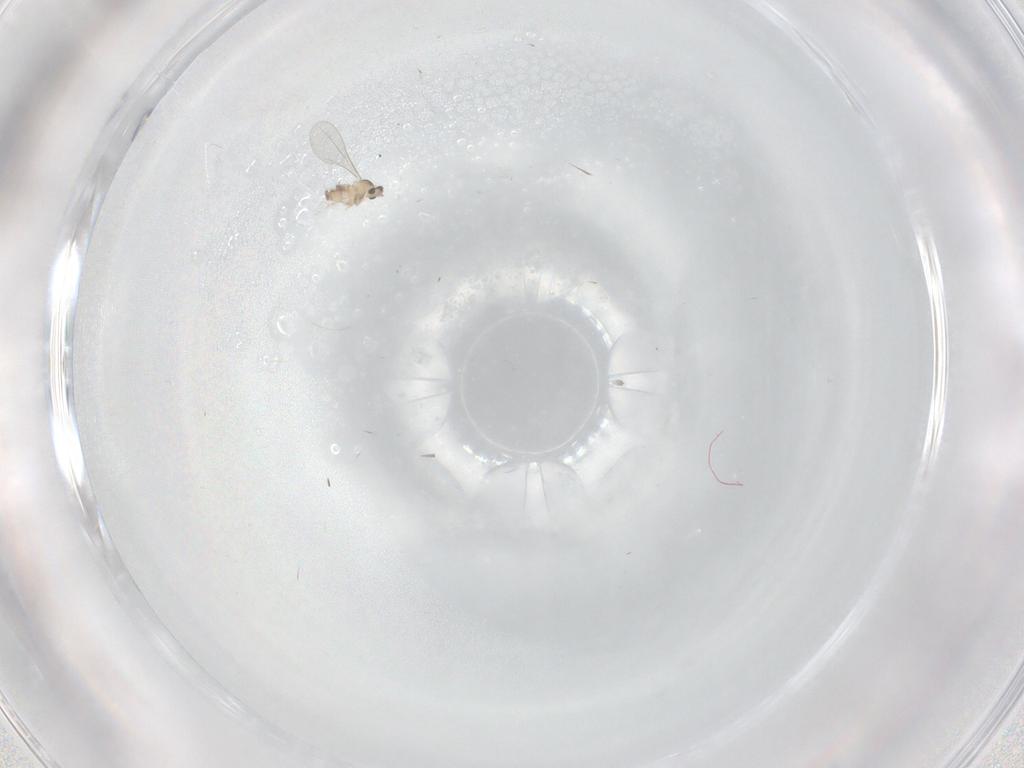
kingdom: Animalia
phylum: Arthropoda
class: Insecta
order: Diptera
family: Cecidomyiidae
